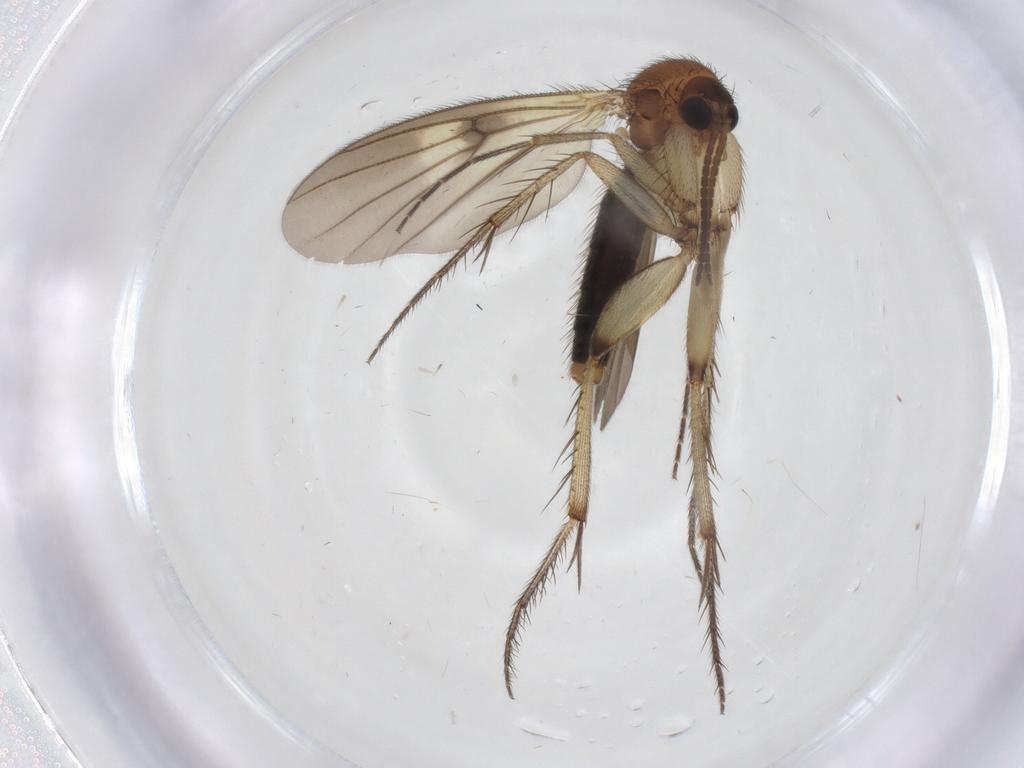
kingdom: Animalia
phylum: Arthropoda
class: Insecta
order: Diptera
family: Mycetophilidae
